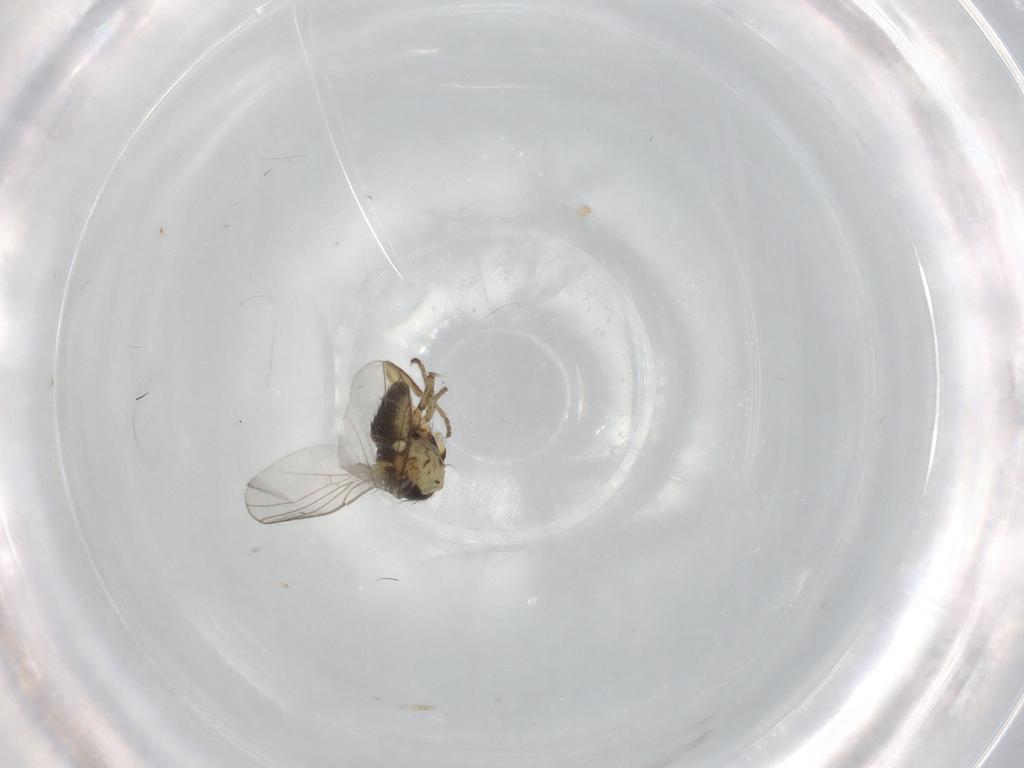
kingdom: Animalia
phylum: Arthropoda
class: Insecta
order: Diptera
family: Agromyzidae
